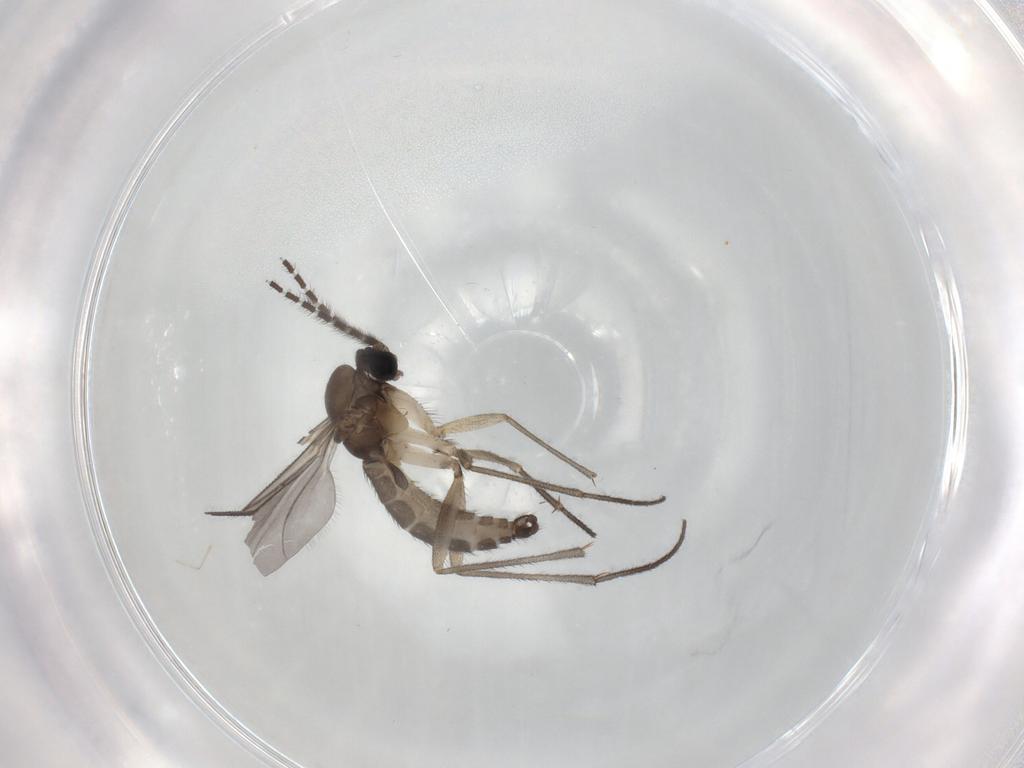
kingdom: Animalia
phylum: Arthropoda
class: Insecta
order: Diptera
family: Sciaridae
